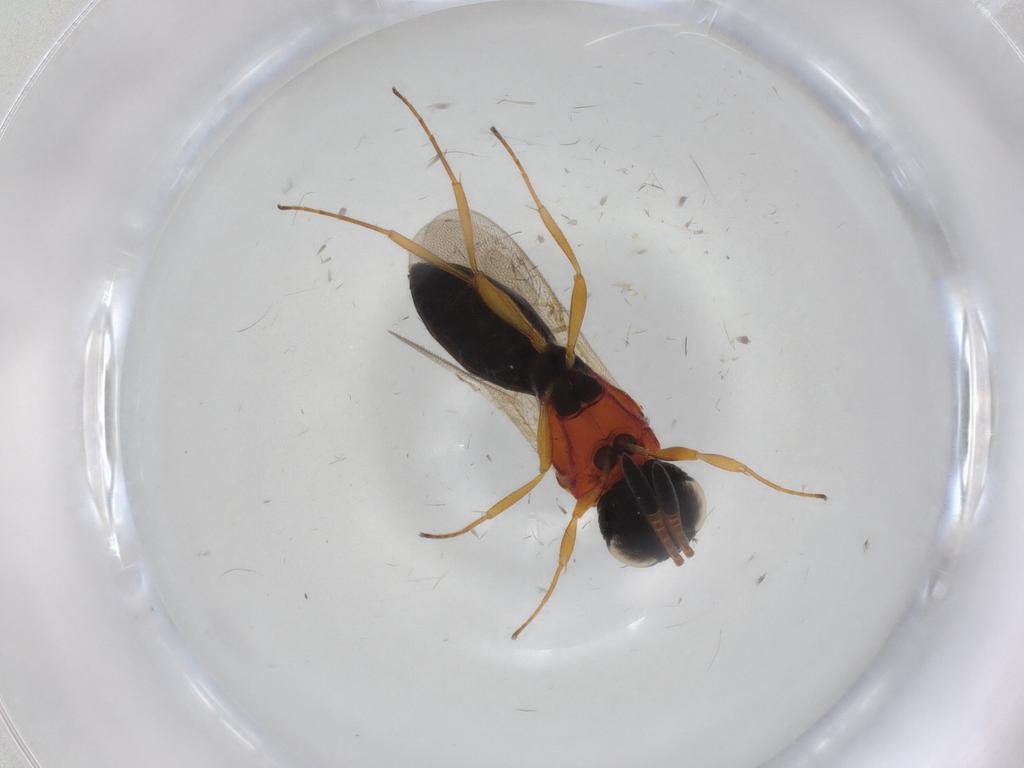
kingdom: Animalia
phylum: Arthropoda
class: Insecta
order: Hymenoptera
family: Scelionidae
